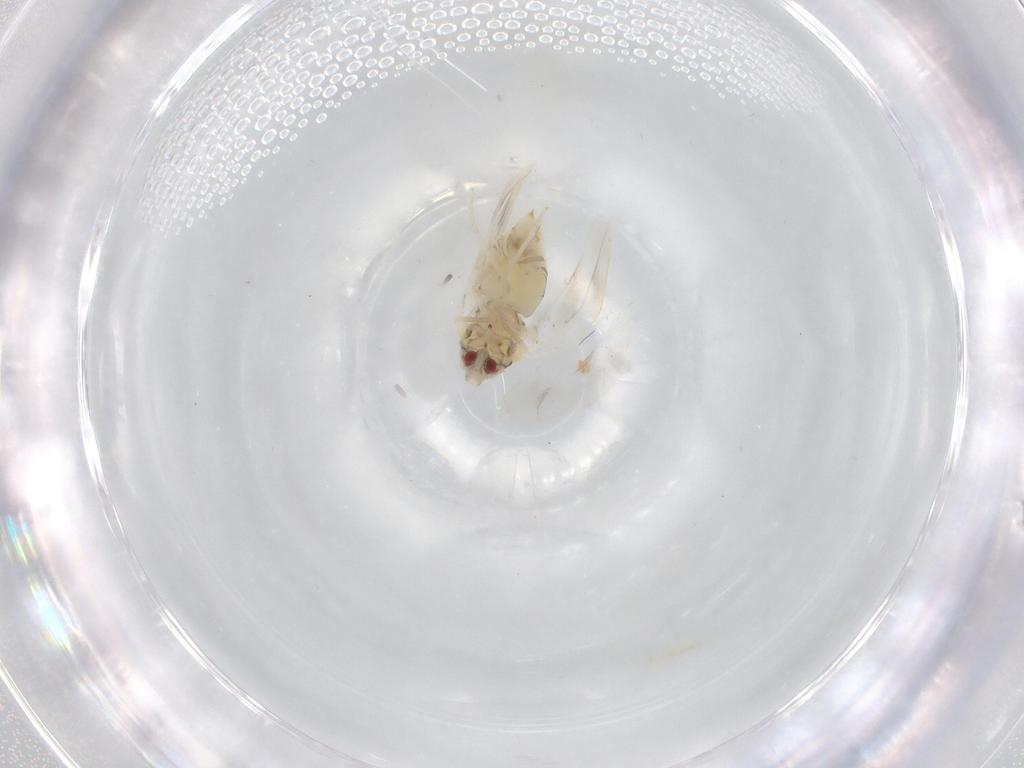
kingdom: Animalia
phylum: Arthropoda
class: Insecta
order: Hemiptera
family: Aleyrodidae
